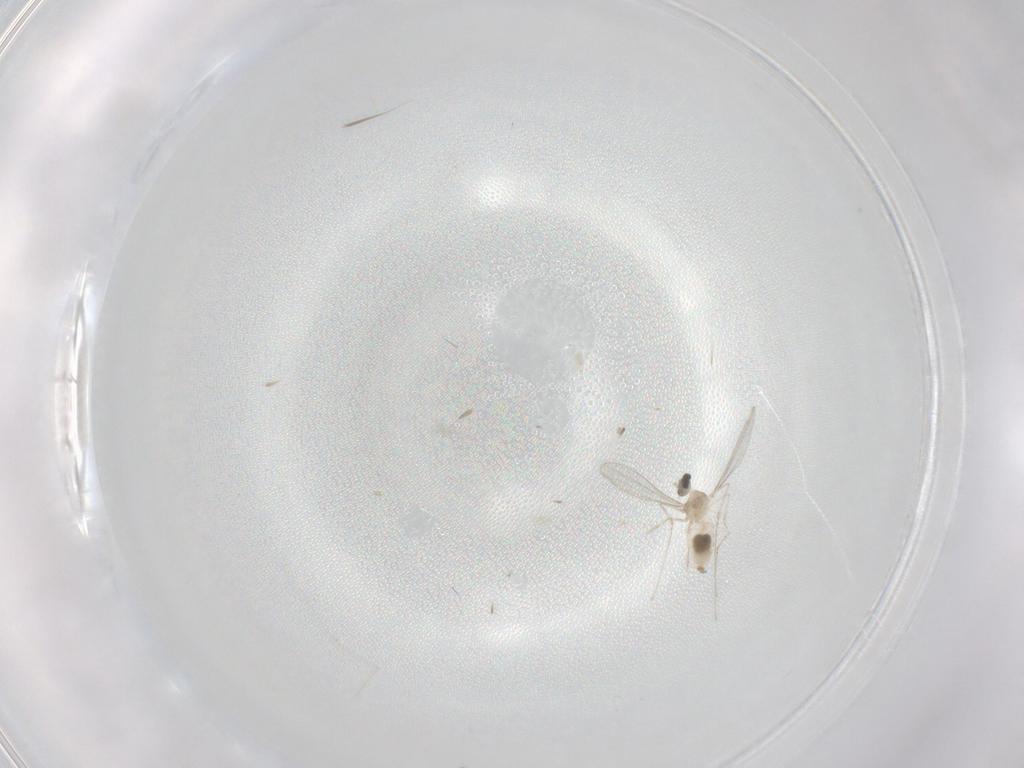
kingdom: Animalia
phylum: Arthropoda
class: Insecta
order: Diptera
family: Cecidomyiidae
